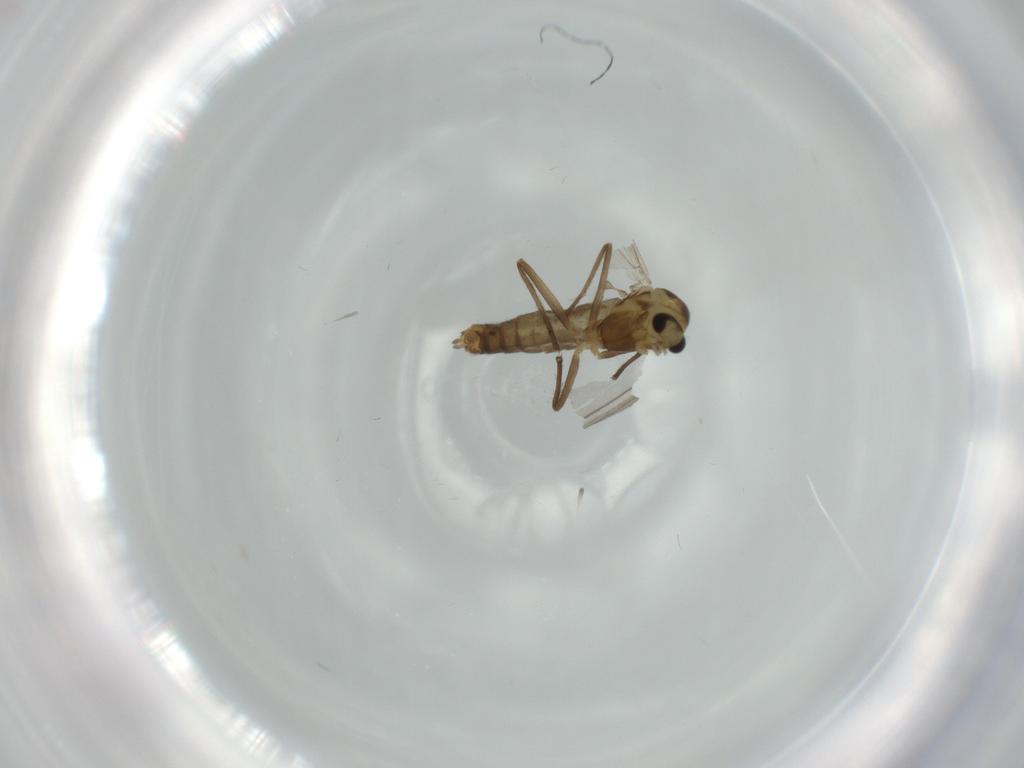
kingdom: Animalia
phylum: Arthropoda
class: Insecta
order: Diptera
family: Chironomidae
